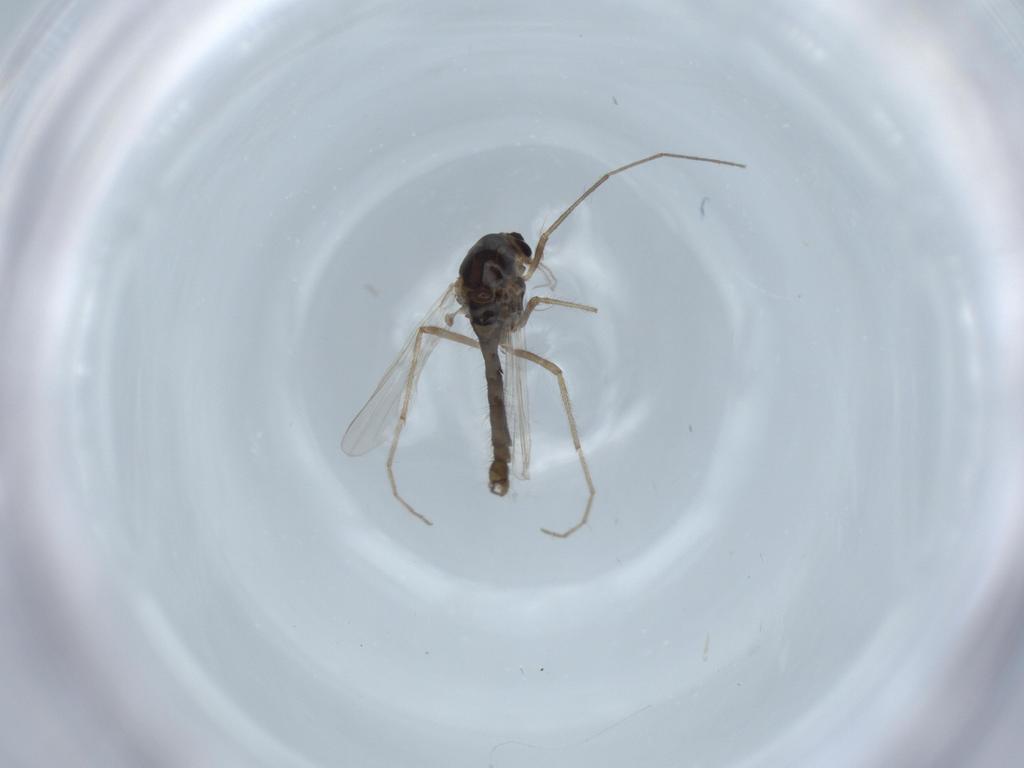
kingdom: Animalia
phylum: Arthropoda
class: Insecta
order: Diptera
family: Chironomidae
